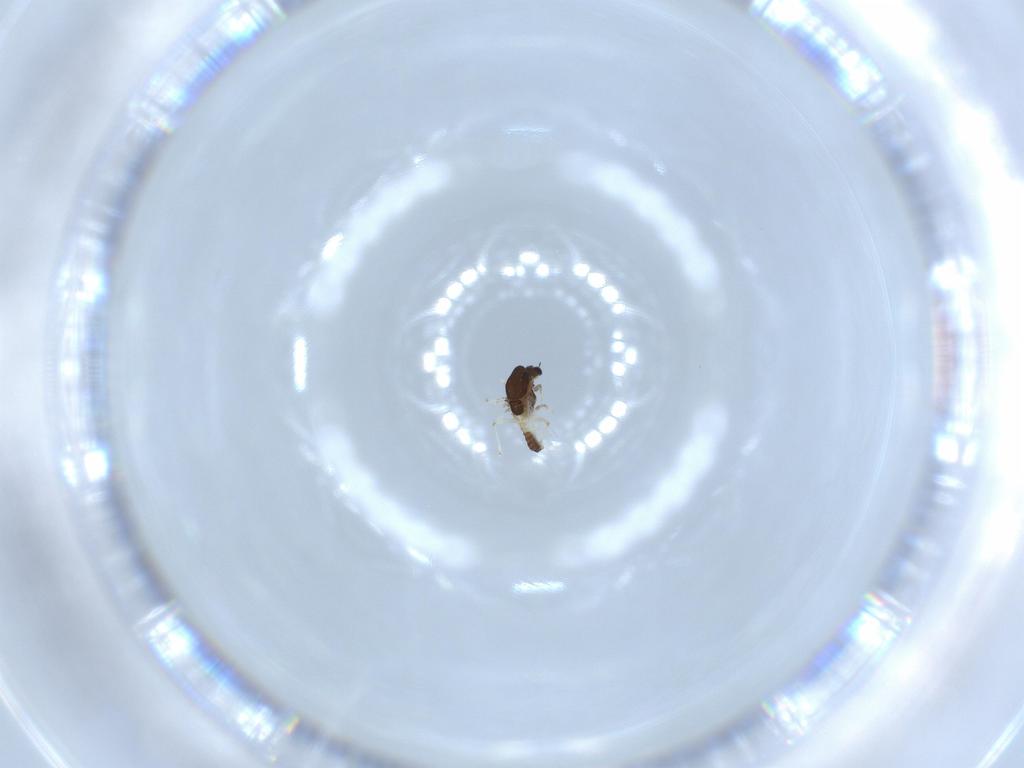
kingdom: Animalia
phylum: Arthropoda
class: Insecta
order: Diptera
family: Chironomidae
